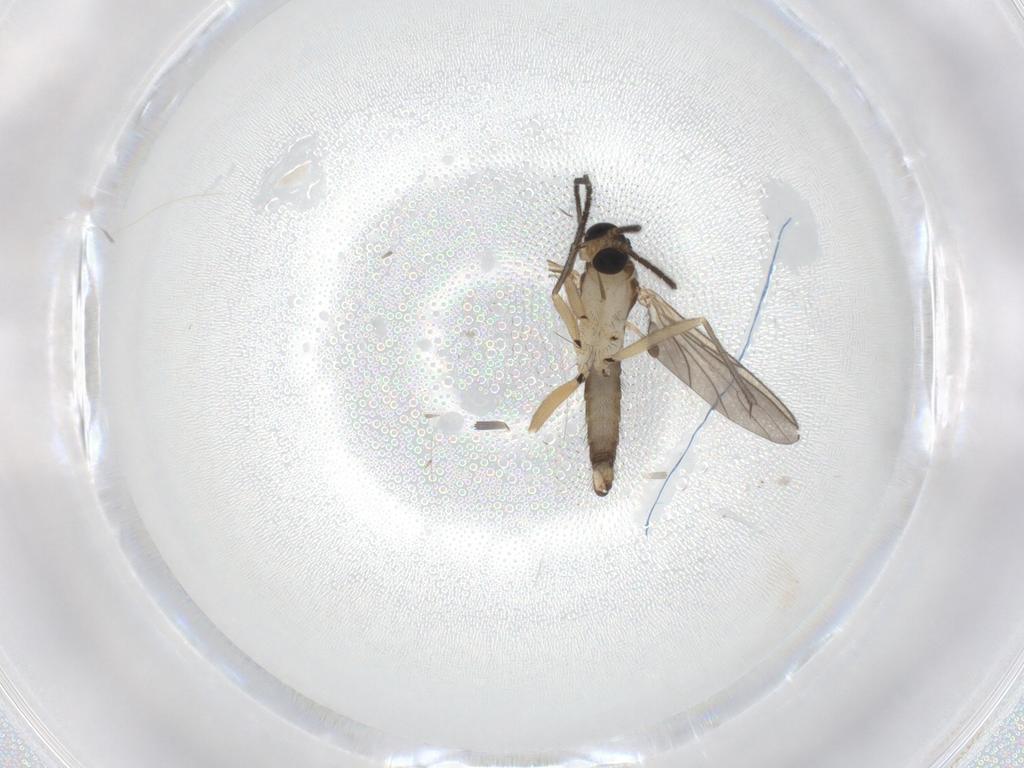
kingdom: Animalia
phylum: Arthropoda
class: Insecta
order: Diptera
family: Sciaridae
